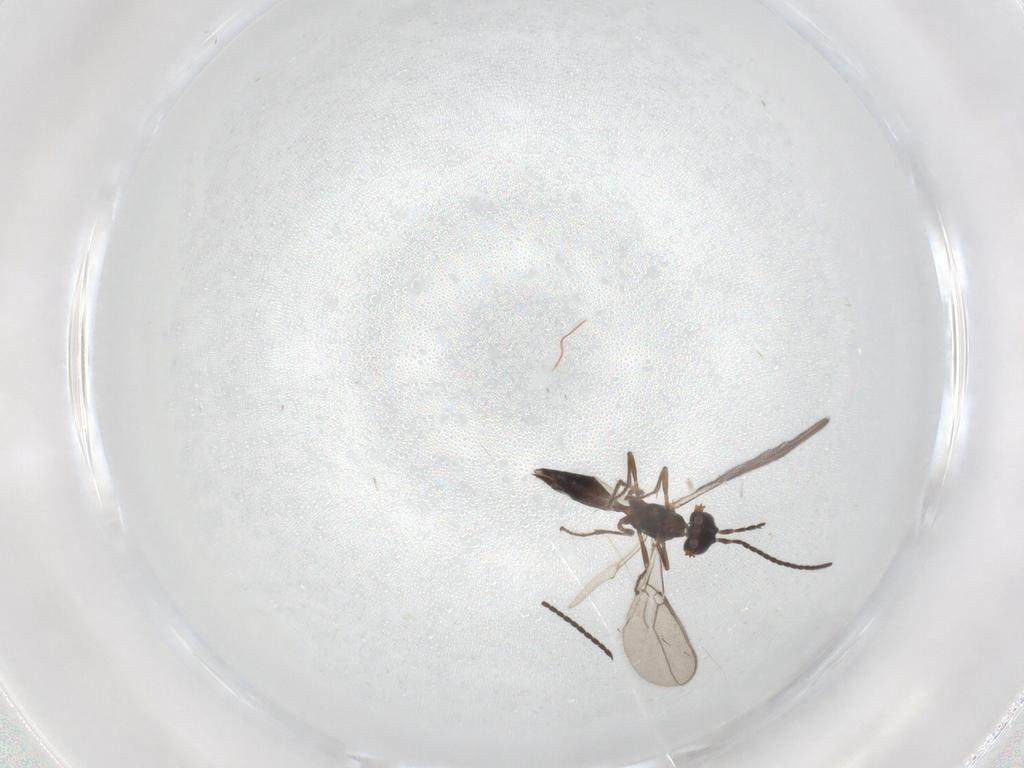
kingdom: Animalia
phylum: Arthropoda
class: Insecta
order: Hymenoptera
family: Braconidae
